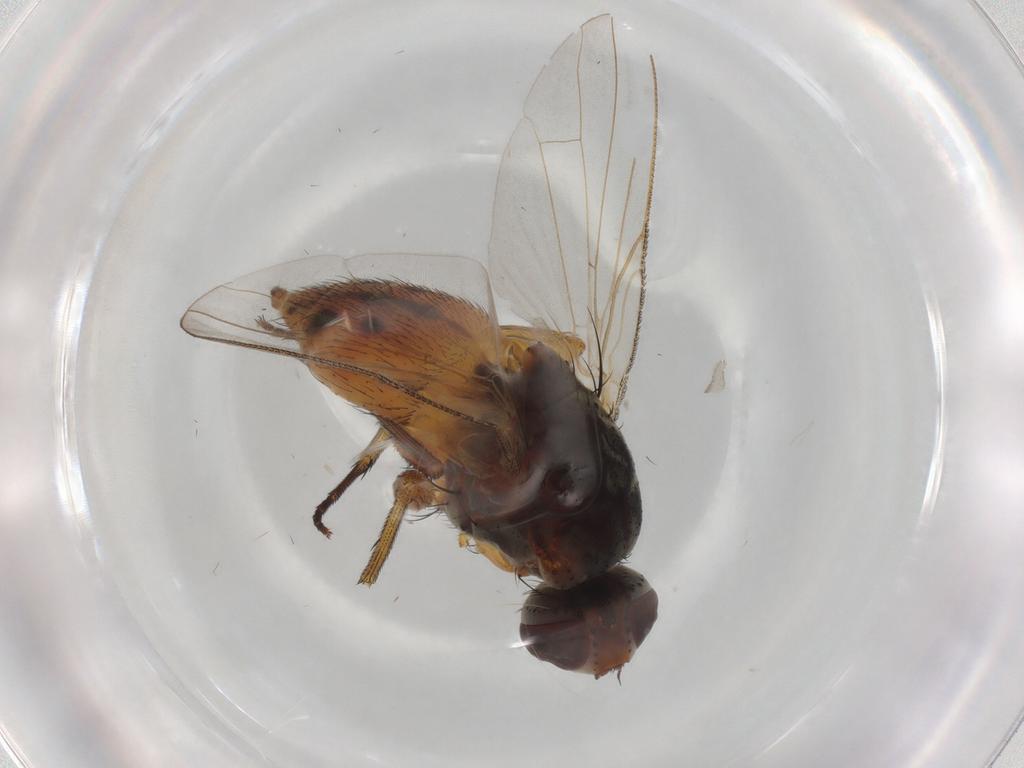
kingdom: Animalia
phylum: Arthropoda
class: Insecta
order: Diptera
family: Muscidae
